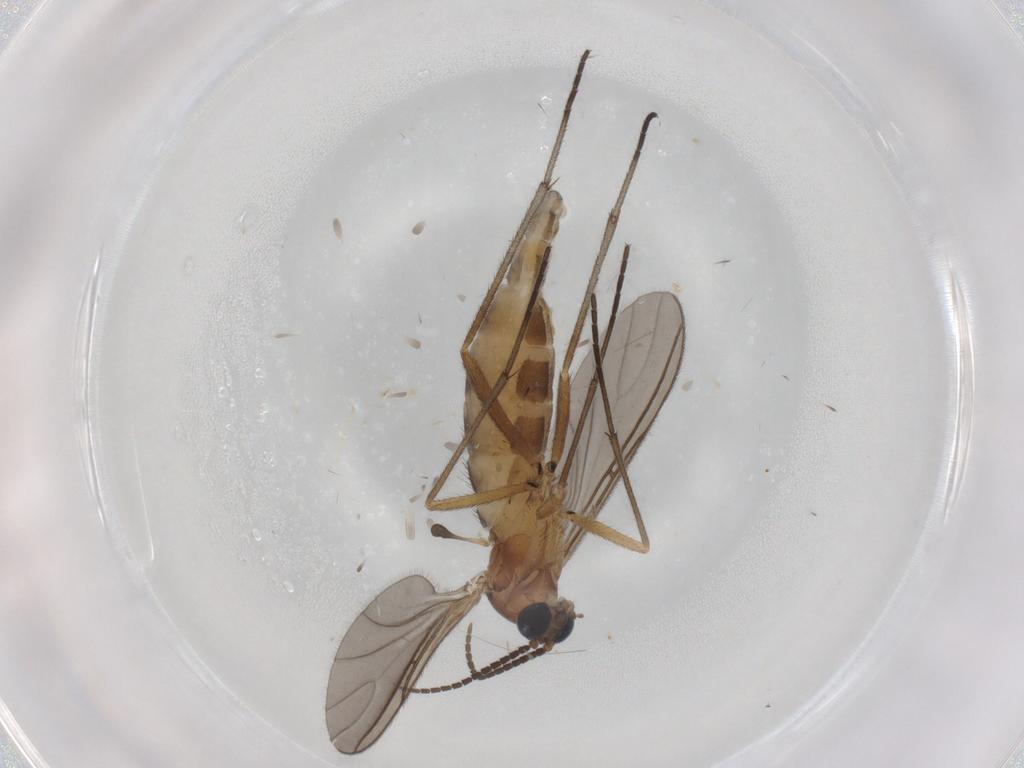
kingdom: Animalia
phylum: Arthropoda
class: Insecta
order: Diptera
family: Sciaridae
